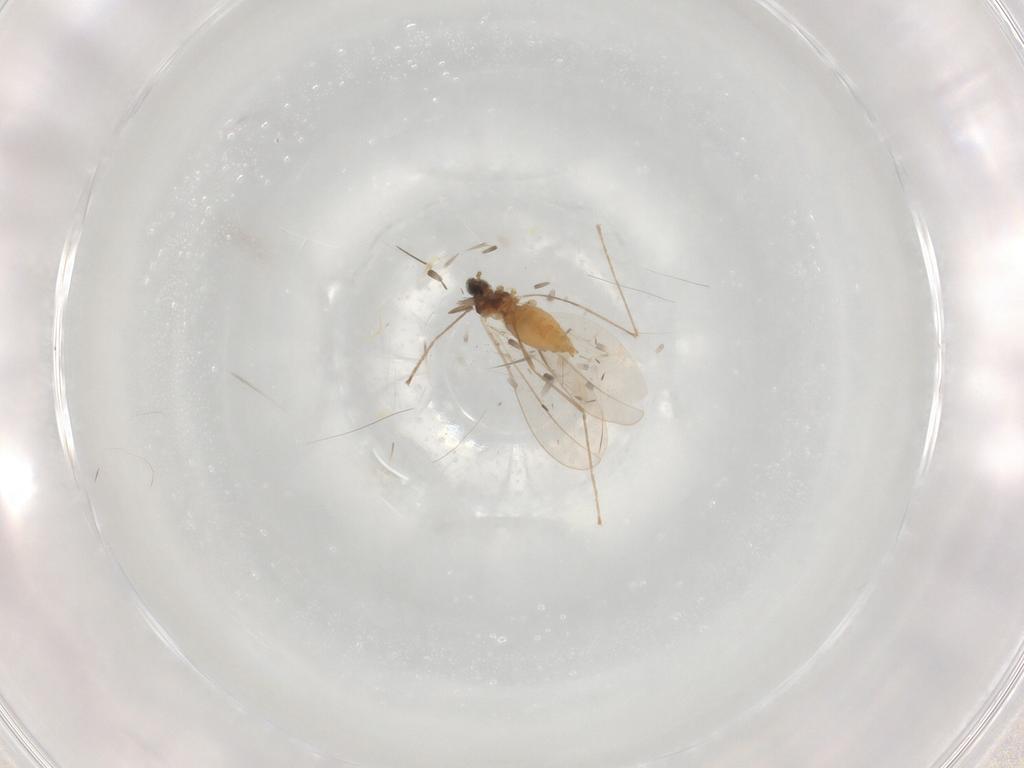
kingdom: Animalia
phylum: Arthropoda
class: Insecta
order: Diptera
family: Cecidomyiidae
